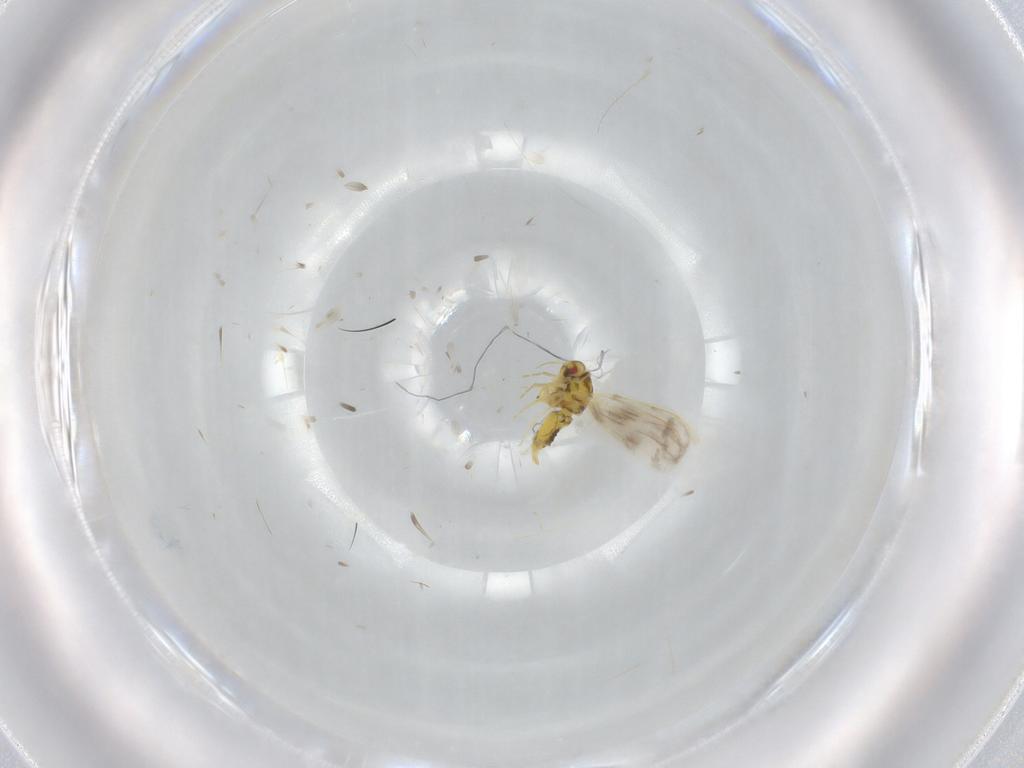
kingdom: Animalia
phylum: Arthropoda
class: Insecta
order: Hemiptera
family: Aleyrodidae
